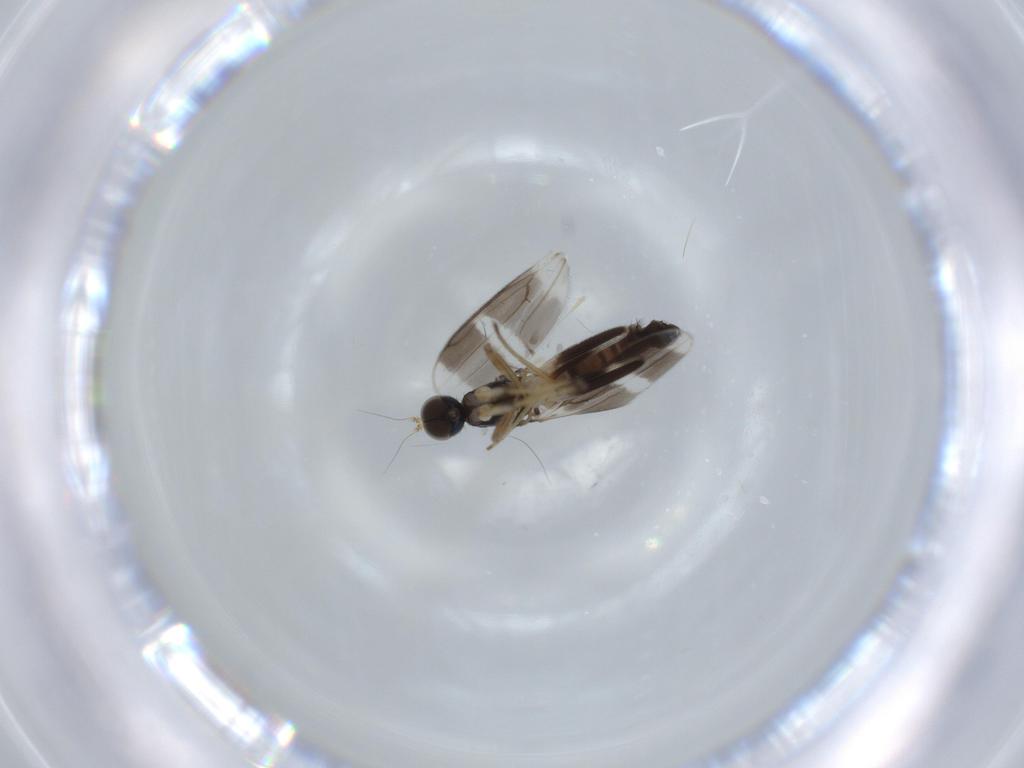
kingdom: Animalia
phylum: Arthropoda
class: Insecta
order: Diptera
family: Hybotidae
